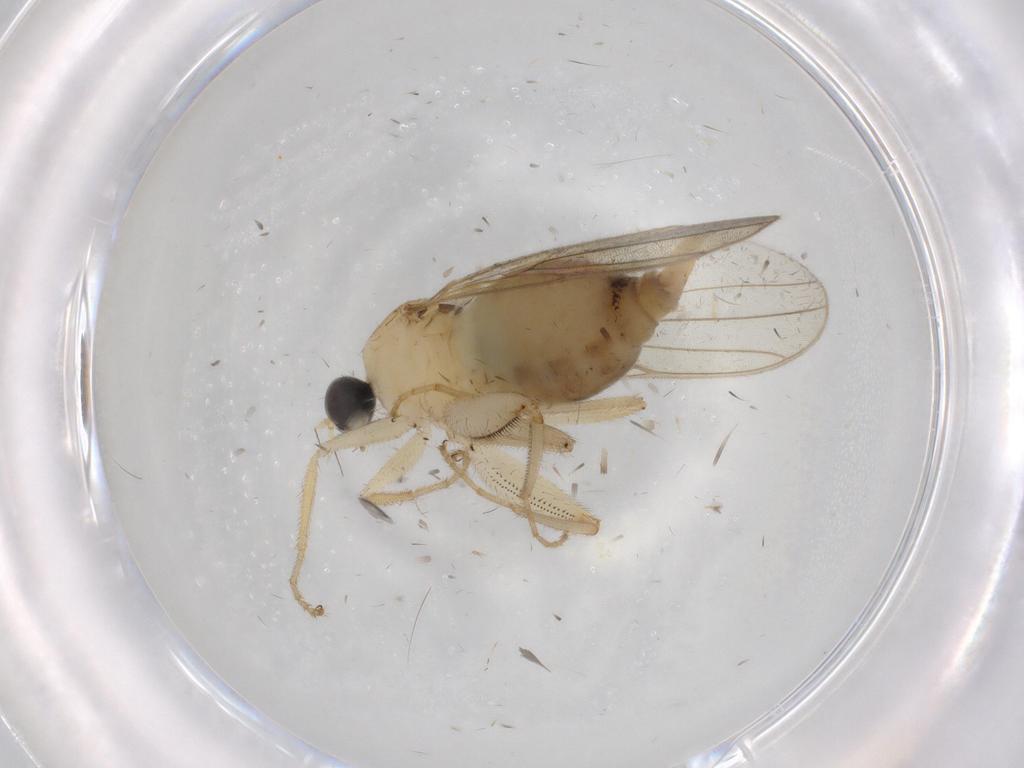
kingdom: Animalia
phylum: Arthropoda
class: Insecta
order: Diptera
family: Hybotidae
